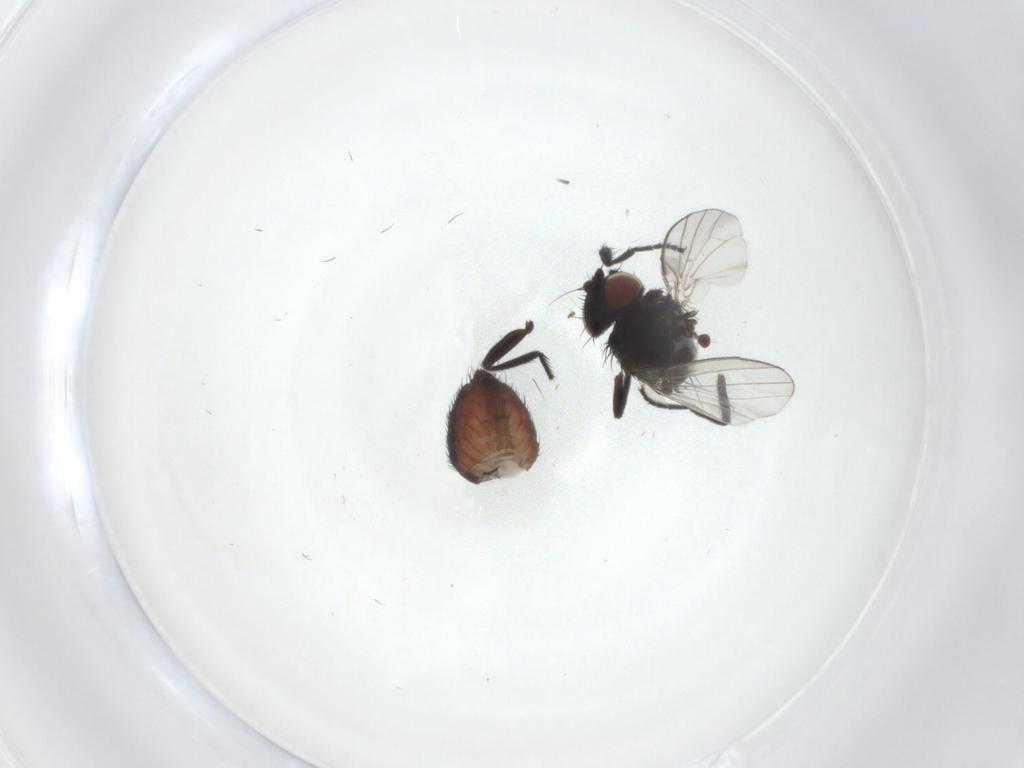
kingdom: Animalia
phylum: Arthropoda
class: Insecta
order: Diptera
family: Milichiidae
